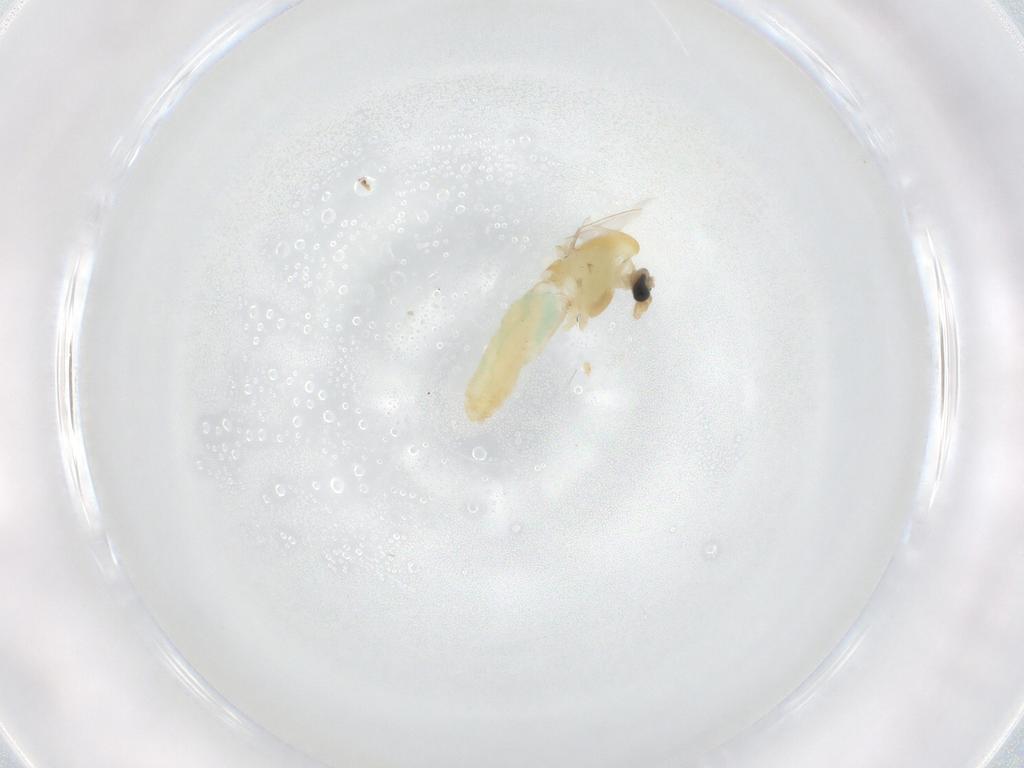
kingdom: Animalia
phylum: Arthropoda
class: Insecta
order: Diptera
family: Chironomidae
